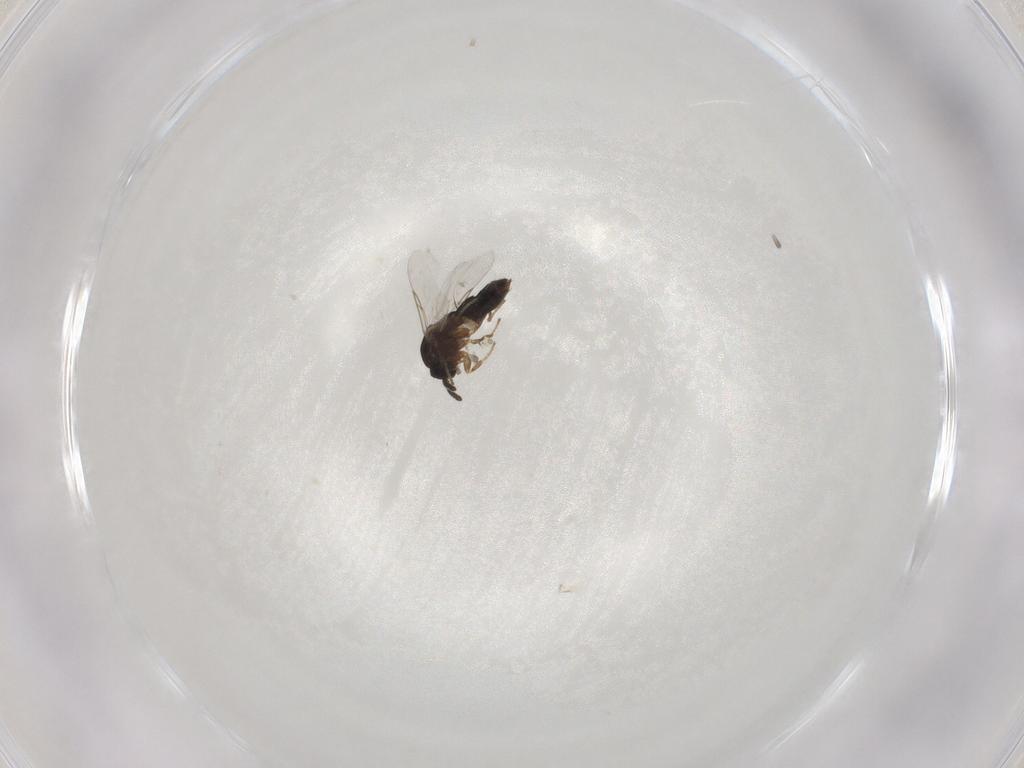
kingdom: Animalia
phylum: Arthropoda
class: Insecta
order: Diptera
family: Scatopsidae
